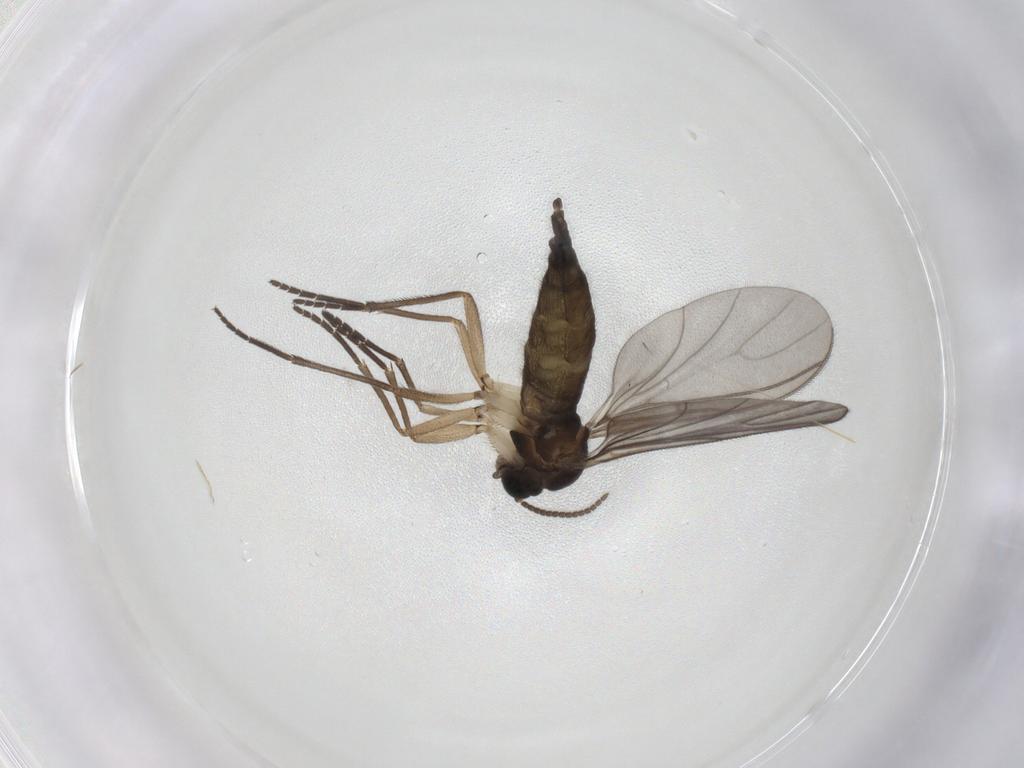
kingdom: Animalia
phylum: Arthropoda
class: Insecta
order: Diptera
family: Sciaridae
